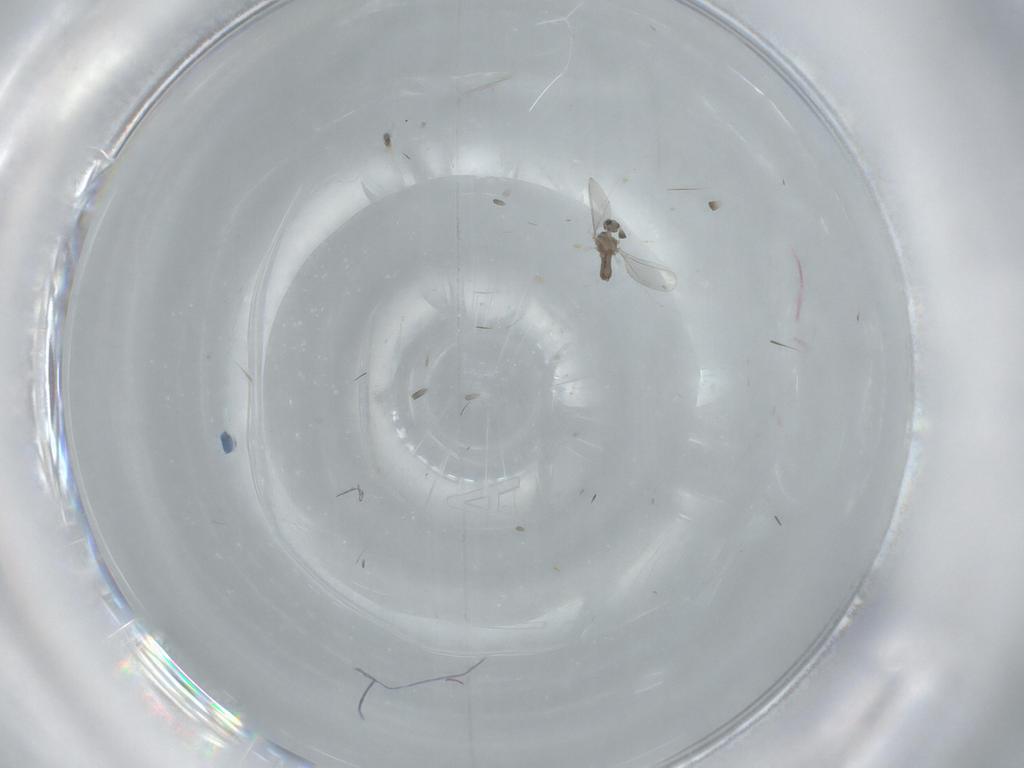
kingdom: Animalia
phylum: Arthropoda
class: Insecta
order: Diptera
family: Cecidomyiidae
